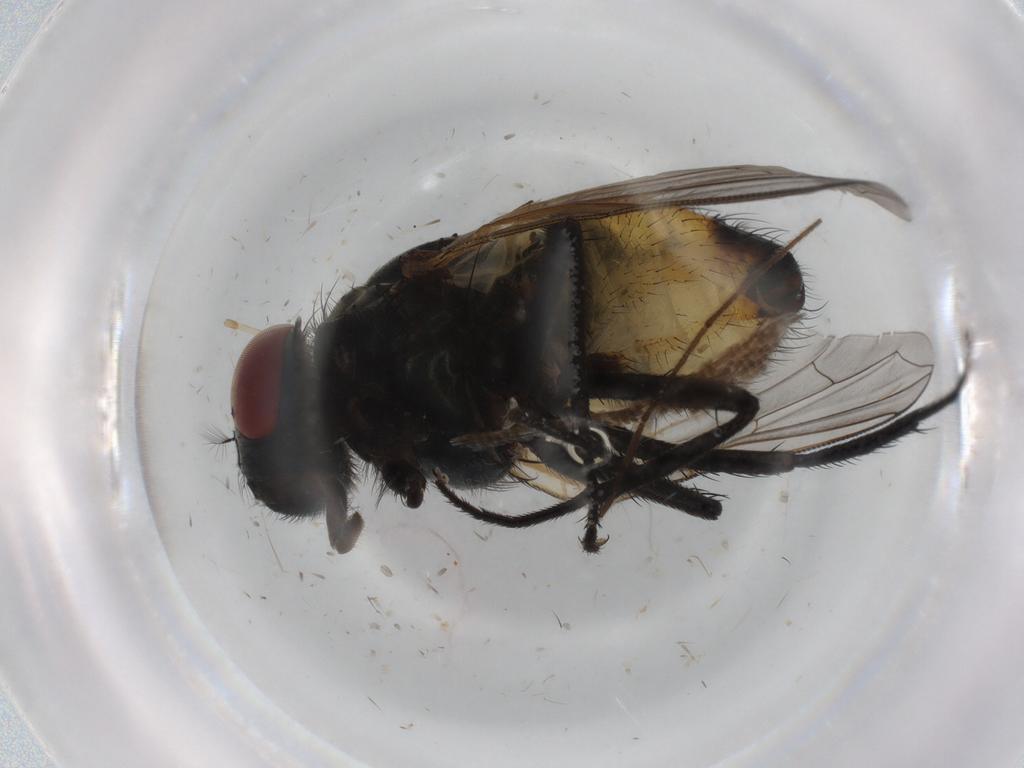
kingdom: Animalia
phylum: Arthropoda
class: Insecta
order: Diptera
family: Muscidae
